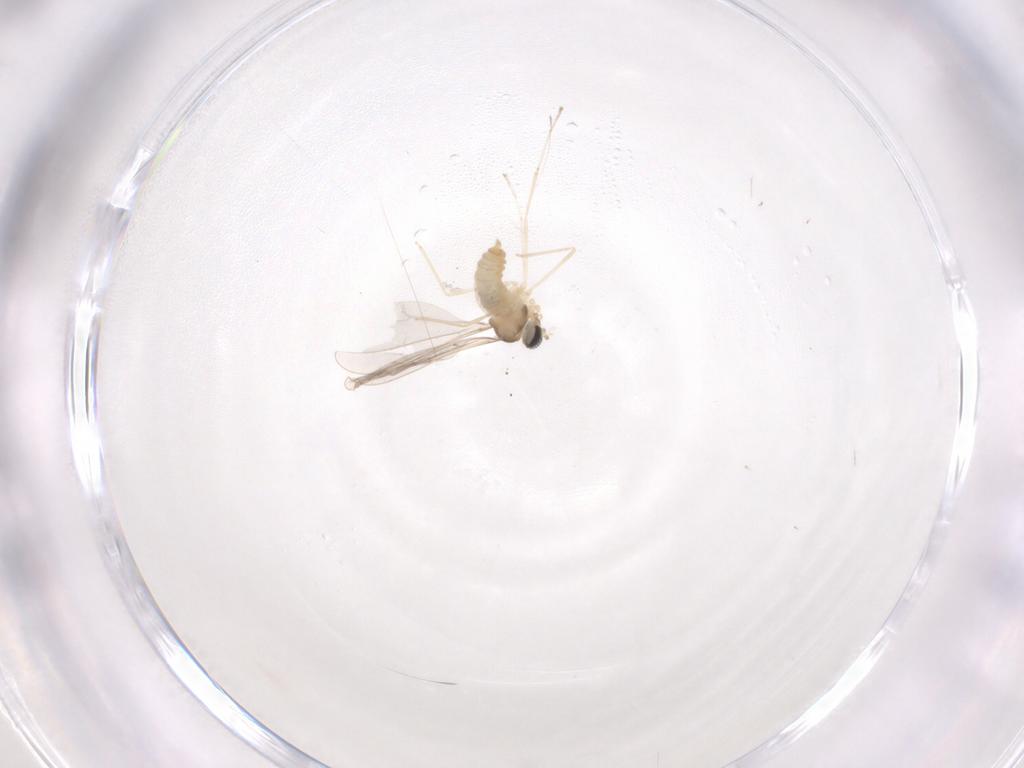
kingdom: Animalia
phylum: Arthropoda
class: Insecta
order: Diptera
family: Cecidomyiidae
